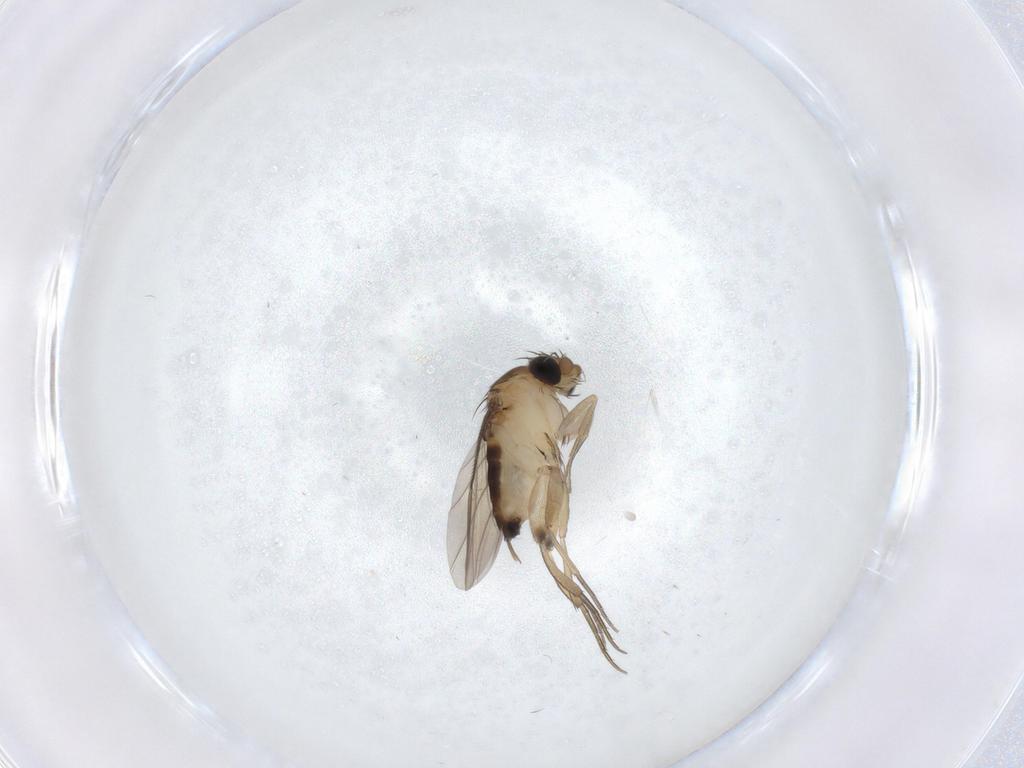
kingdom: Animalia
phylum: Arthropoda
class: Insecta
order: Diptera
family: Phoridae
